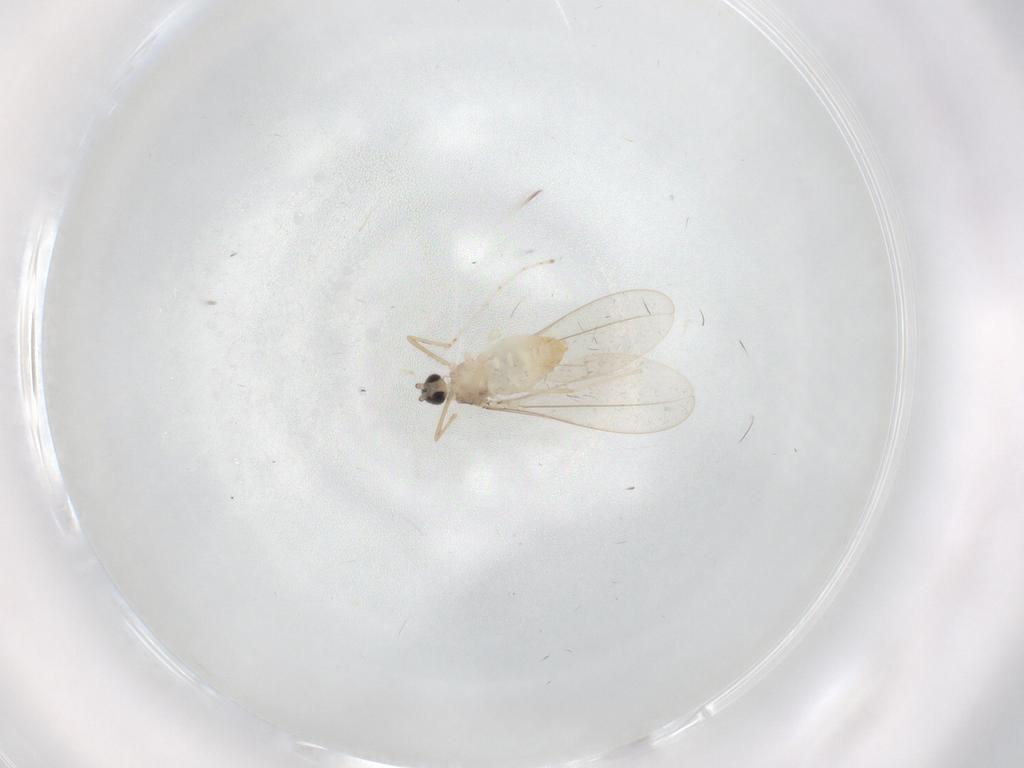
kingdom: Animalia
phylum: Arthropoda
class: Insecta
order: Diptera
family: Cecidomyiidae
